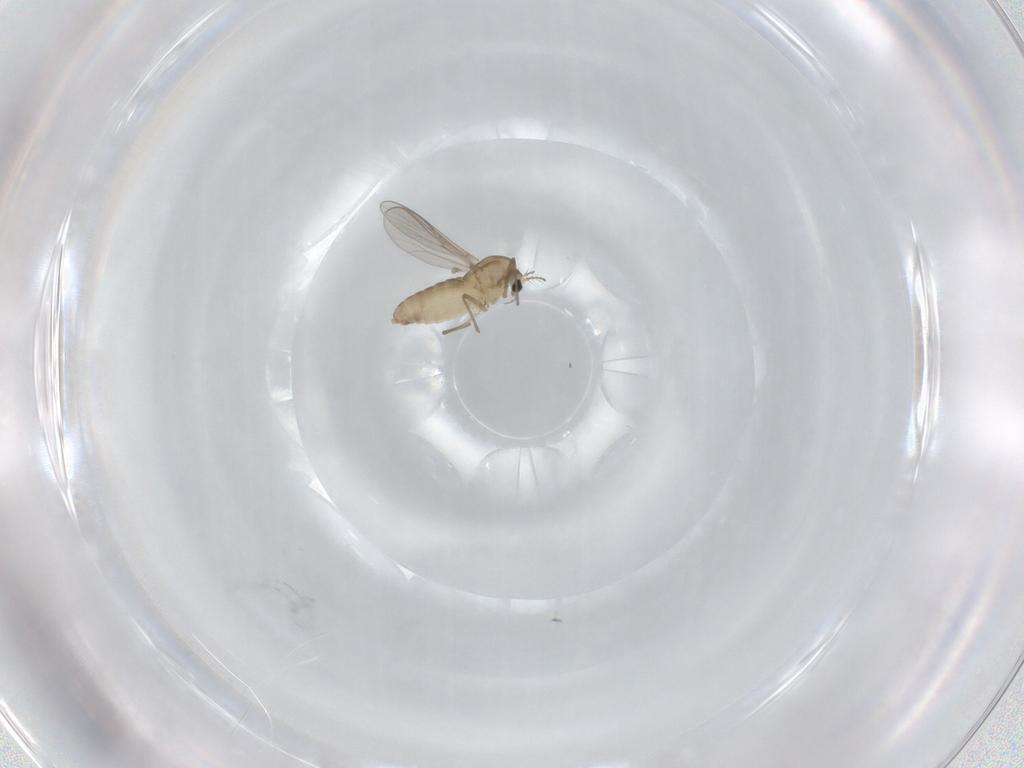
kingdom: Animalia
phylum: Arthropoda
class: Insecta
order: Diptera
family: Chironomidae
